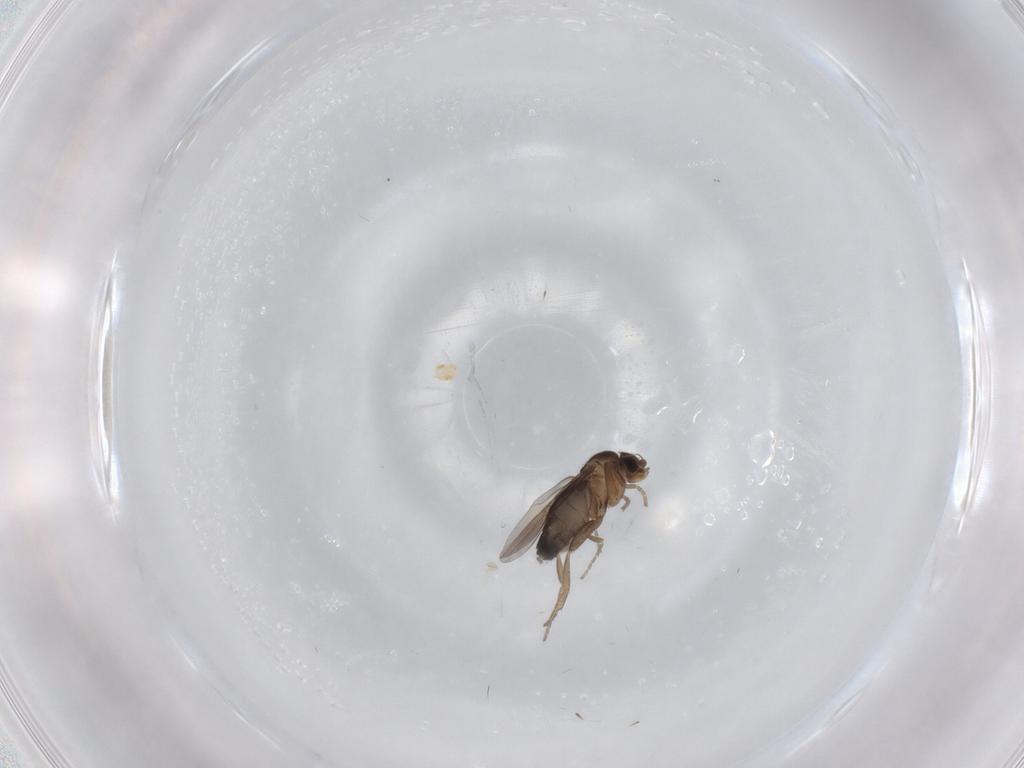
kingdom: Animalia
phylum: Arthropoda
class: Insecta
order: Diptera
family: Phoridae
